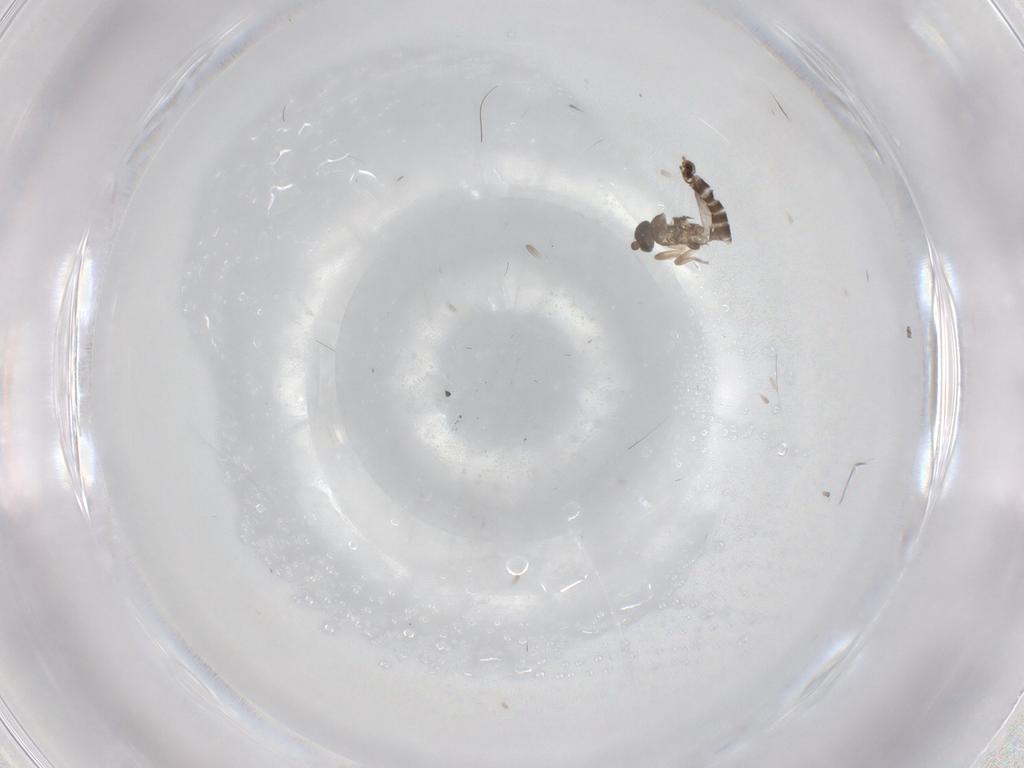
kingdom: Animalia
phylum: Arthropoda
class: Insecta
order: Diptera
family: Phoridae
